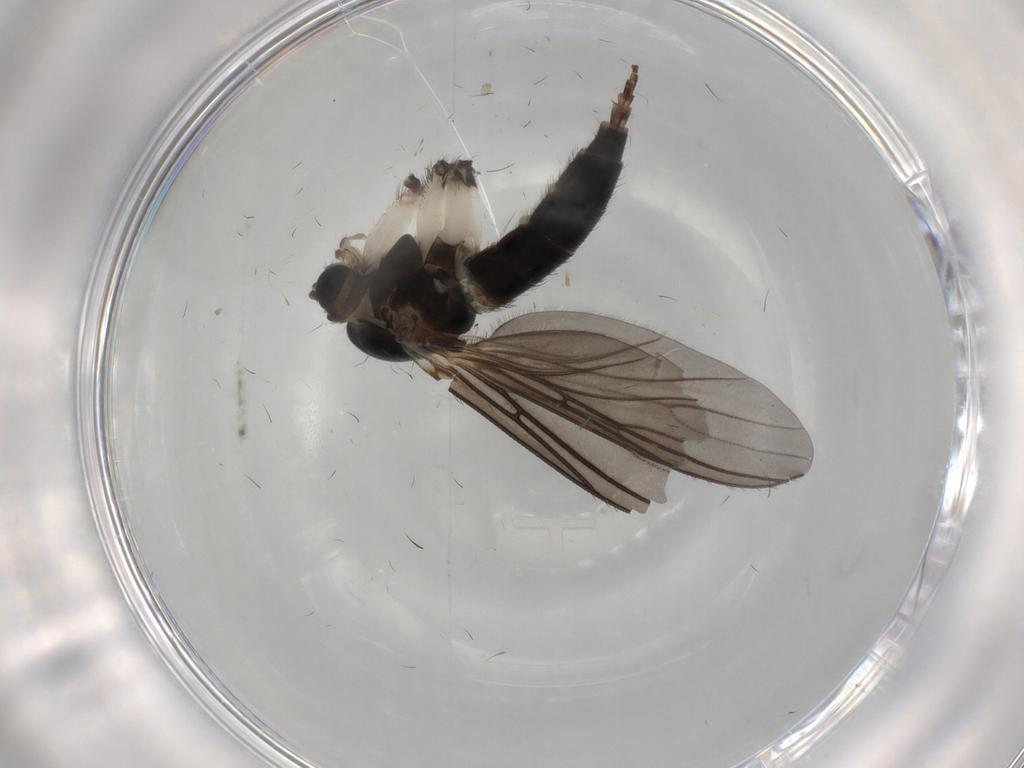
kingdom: Animalia
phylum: Arthropoda
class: Insecta
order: Diptera
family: Sciaridae
